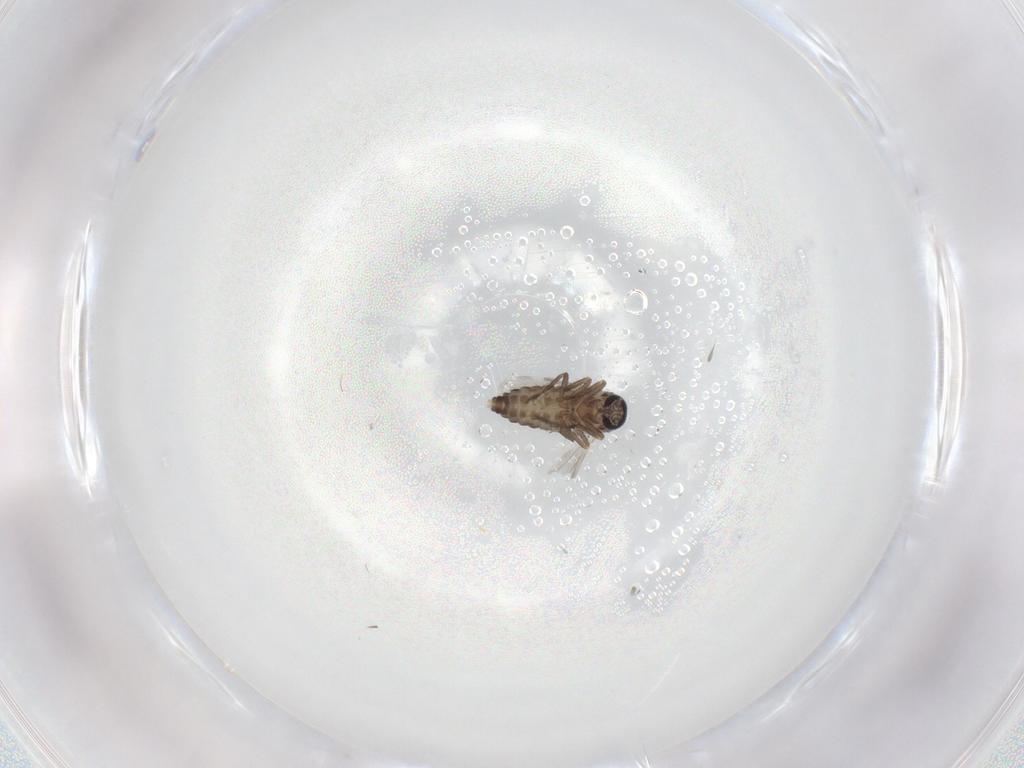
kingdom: Animalia
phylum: Arthropoda
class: Insecta
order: Diptera
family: Ceratopogonidae
